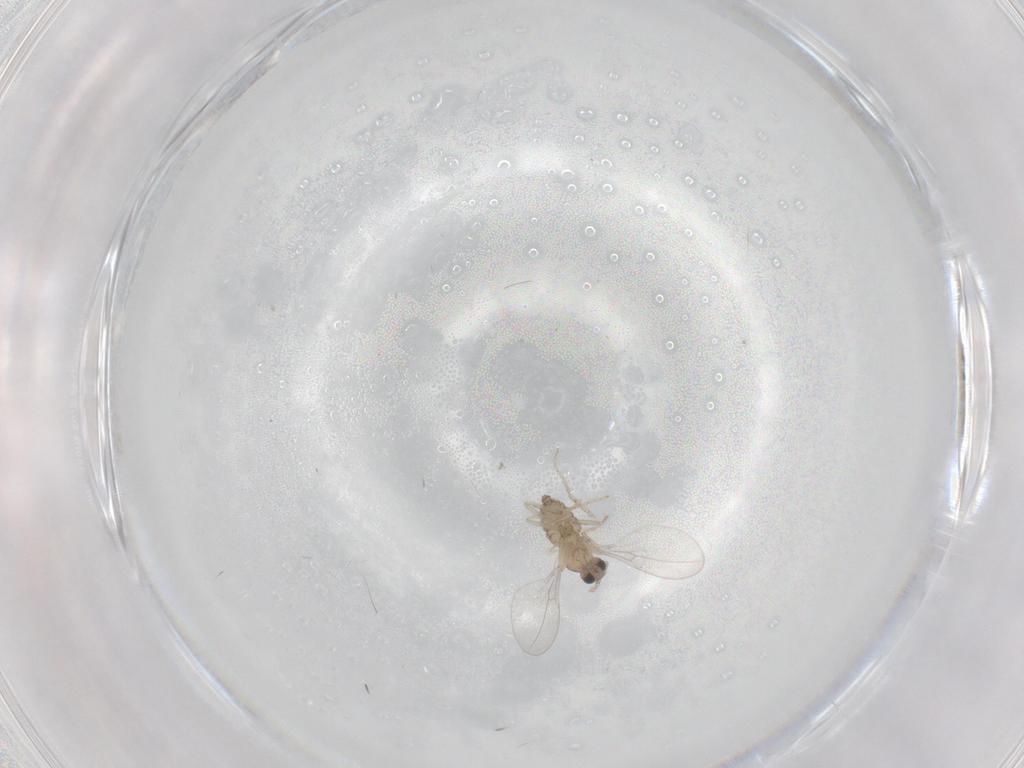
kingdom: Animalia
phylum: Arthropoda
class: Insecta
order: Diptera
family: Cecidomyiidae
